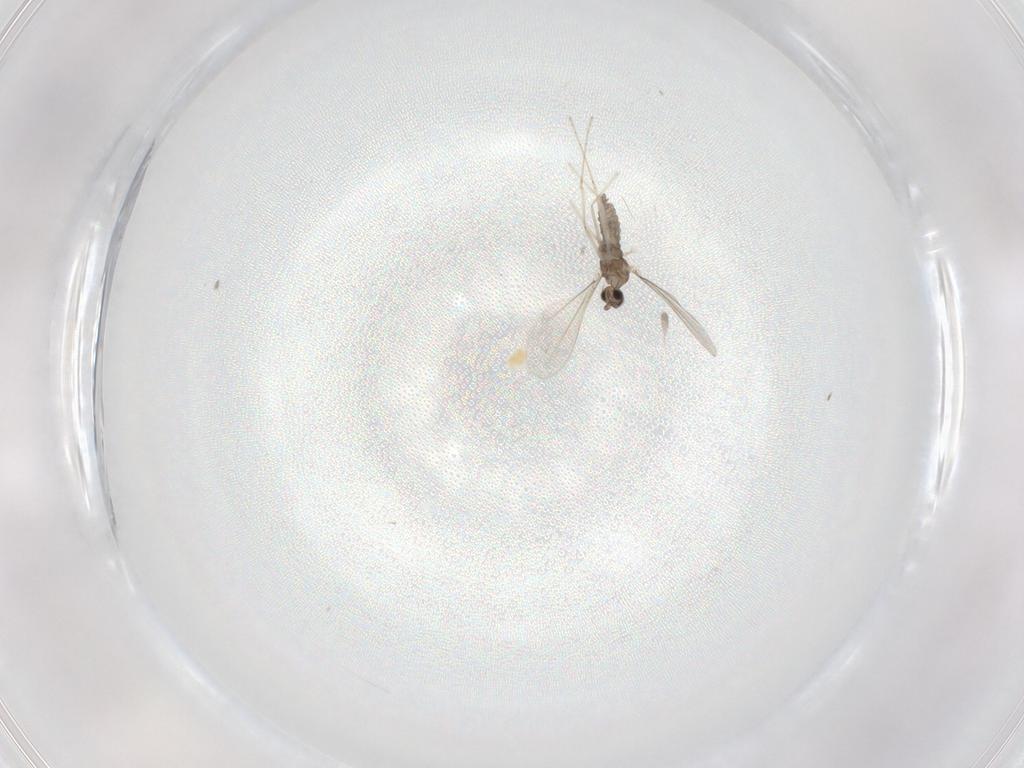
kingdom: Animalia
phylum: Arthropoda
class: Insecta
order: Diptera
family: Cecidomyiidae
